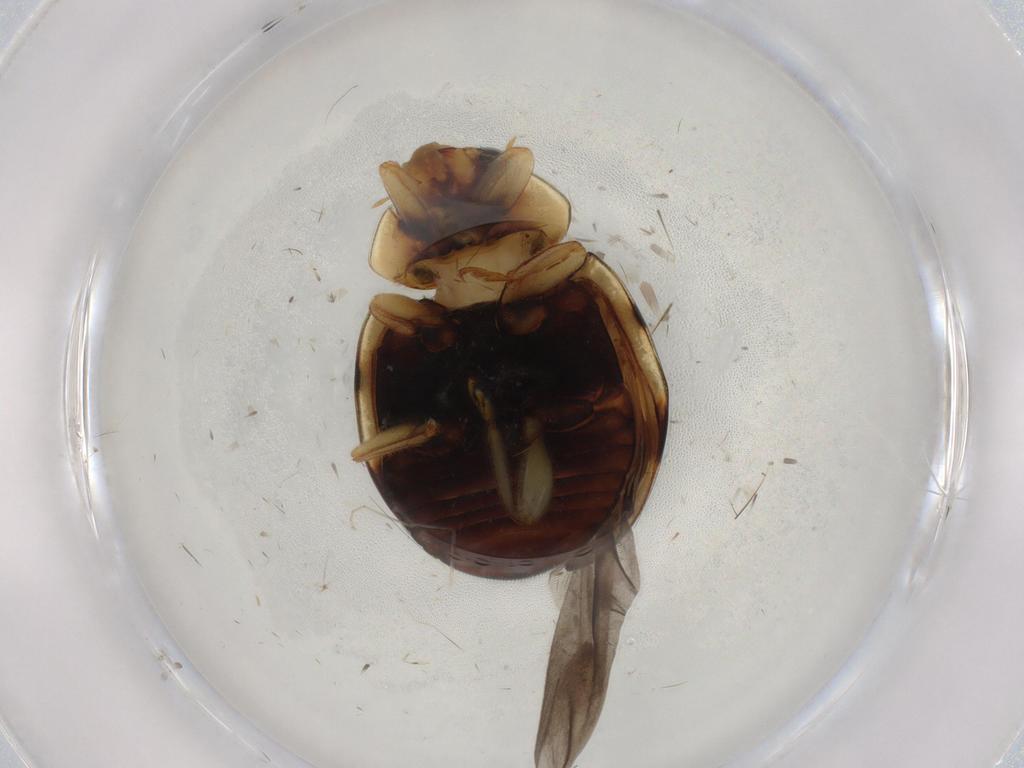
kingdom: Animalia
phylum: Arthropoda
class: Insecta
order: Coleoptera
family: Coccinellidae
